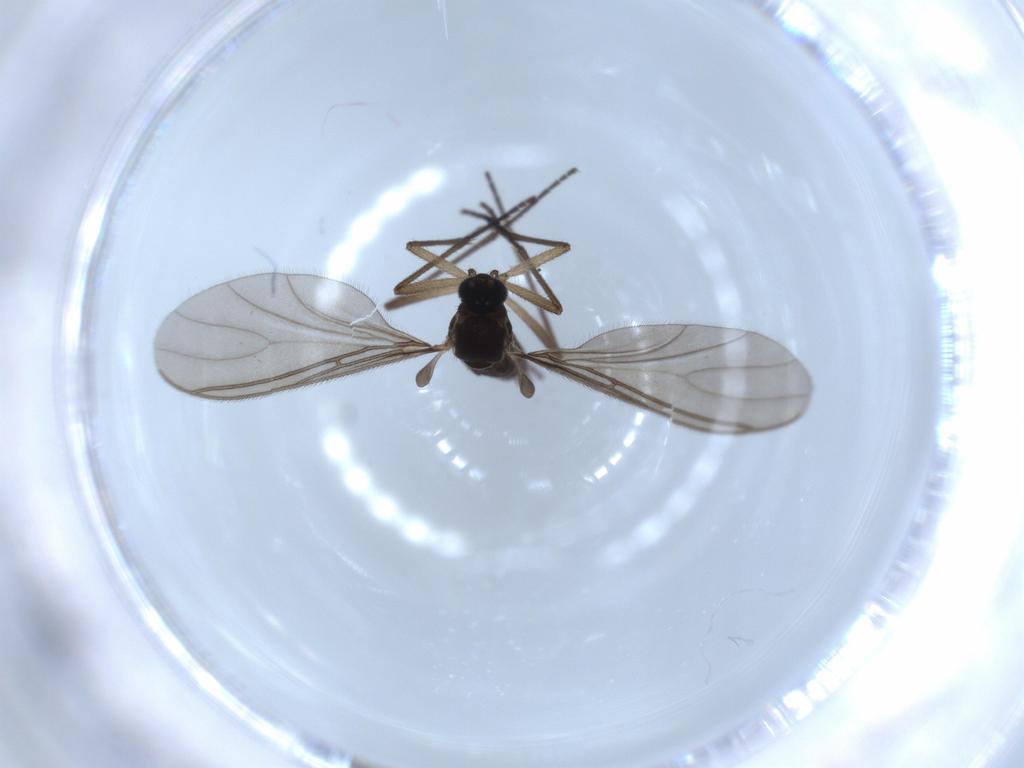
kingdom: Animalia
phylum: Arthropoda
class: Insecta
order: Diptera
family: Sciaridae
